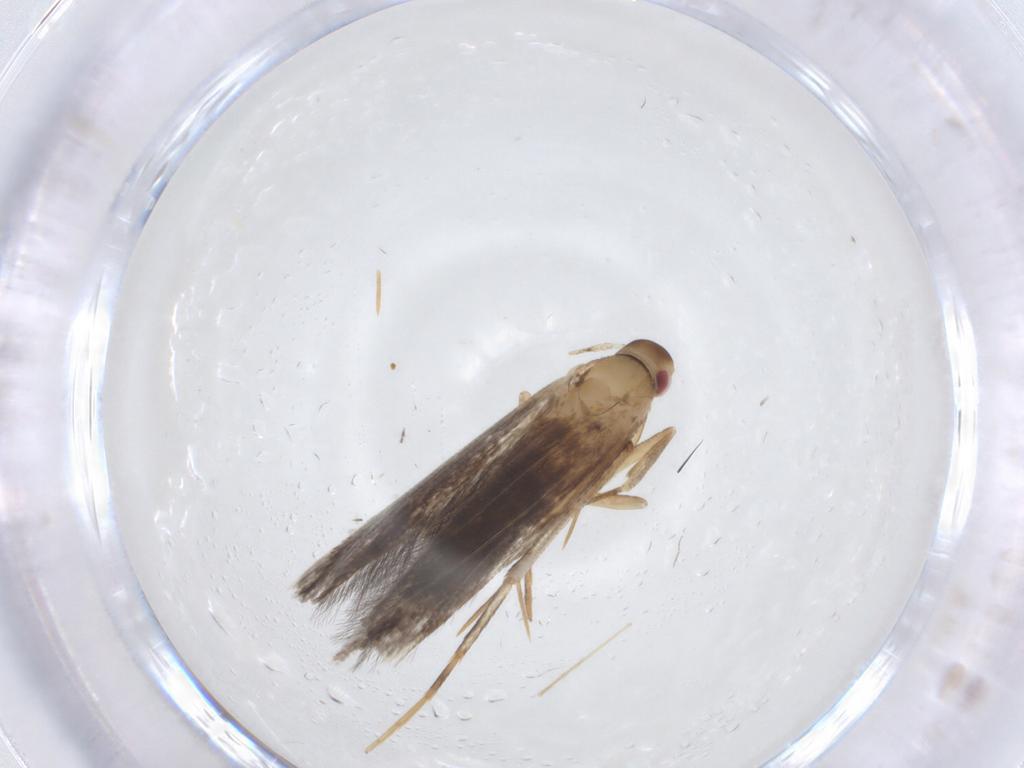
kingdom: Animalia
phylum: Arthropoda
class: Insecta
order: Lepidoptera
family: Cosmopterigidae
